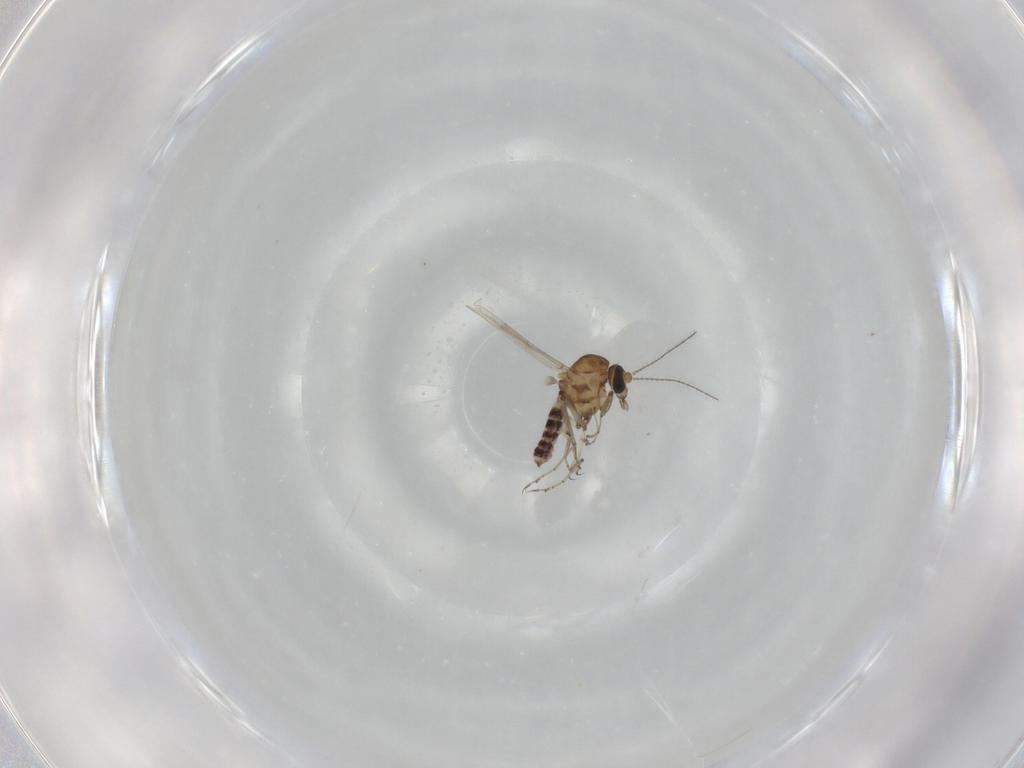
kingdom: Animalia
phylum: Arthropoda
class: Insecta
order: Diptera
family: Ceratopogonidae
